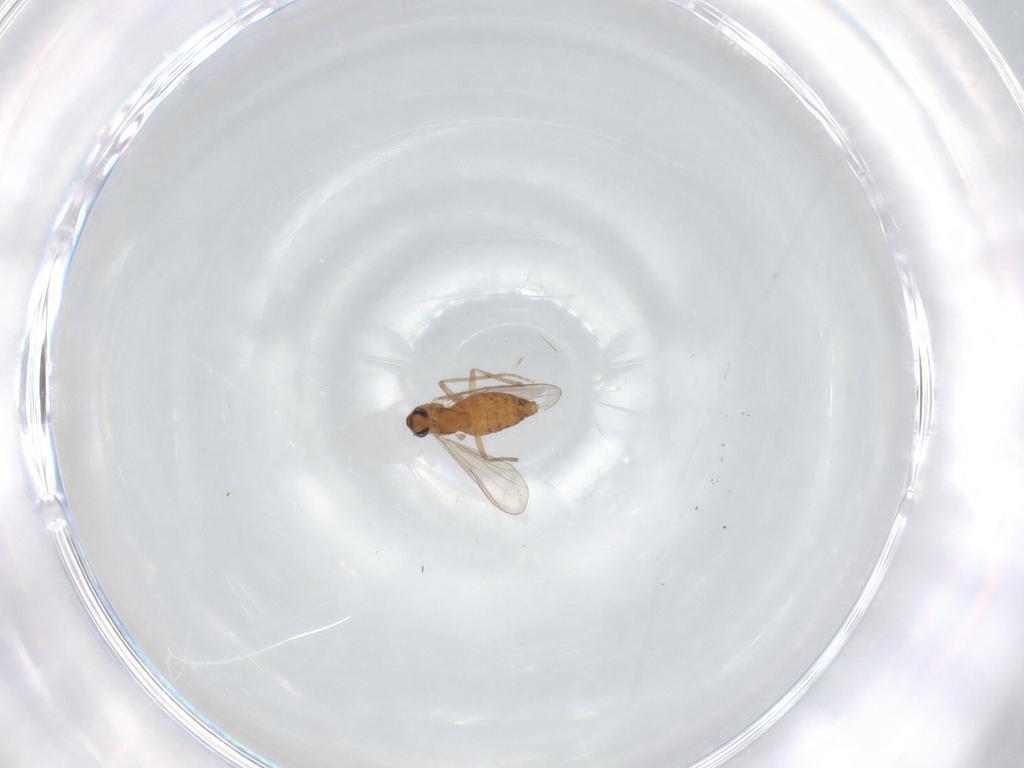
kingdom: Animalia
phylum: Arthropoda
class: Insecta
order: Diptera
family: Chironomidae
